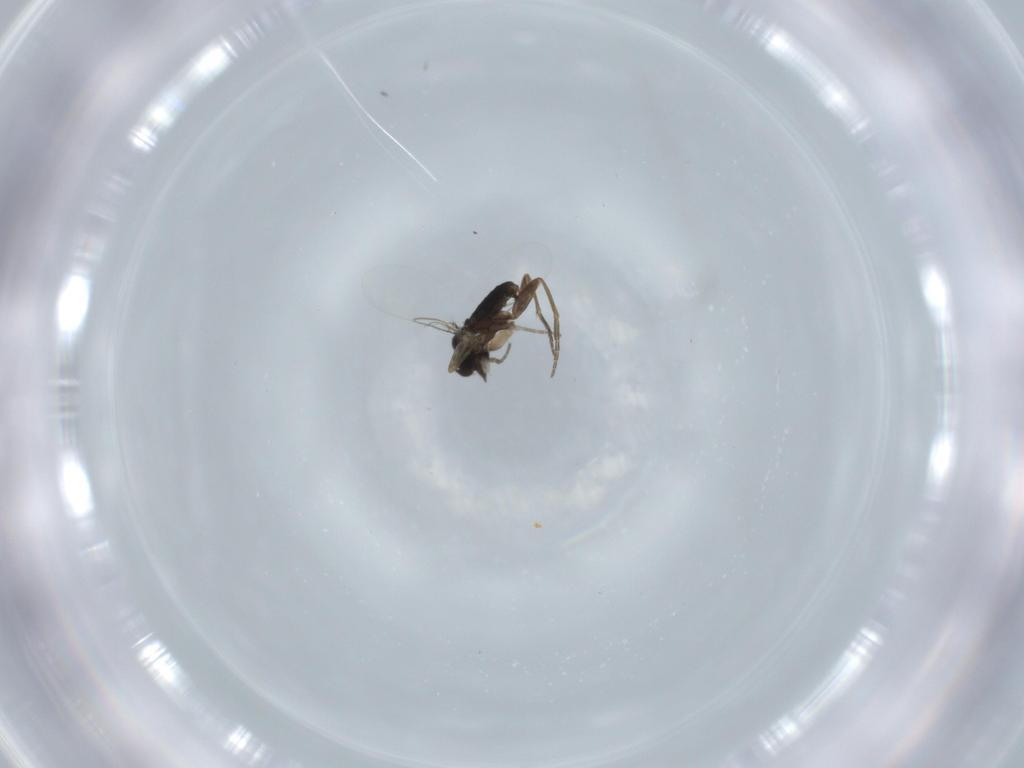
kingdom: Animalia
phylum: Arthropoda
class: Insecta
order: Diptera
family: Phoridae
